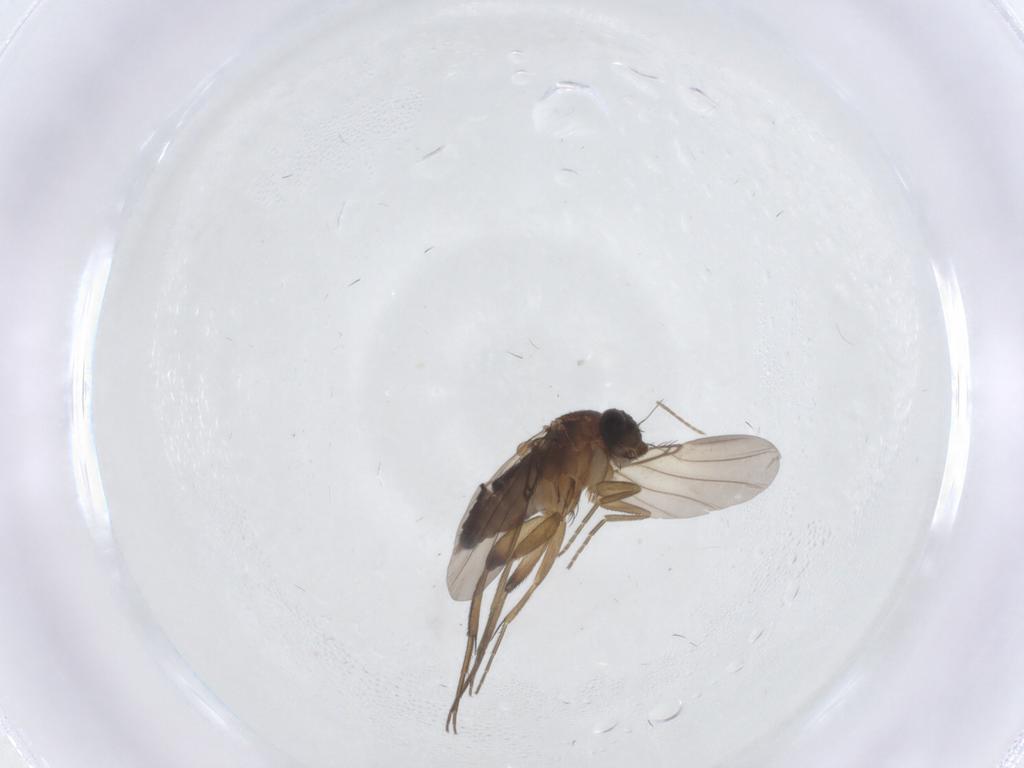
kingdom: Animalia
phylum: Arthropoda
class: Insecta
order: Diptera
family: Phoridae
